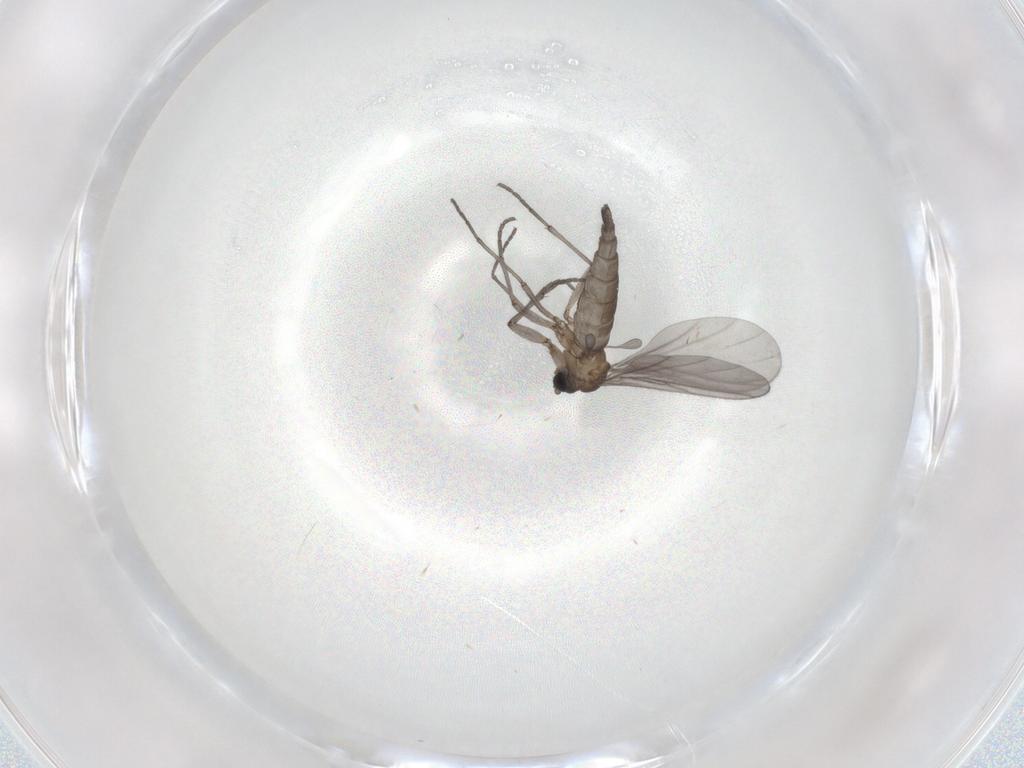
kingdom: Animalia
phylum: Arthropoda
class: Insecta
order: Diptera
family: Sciaridae
